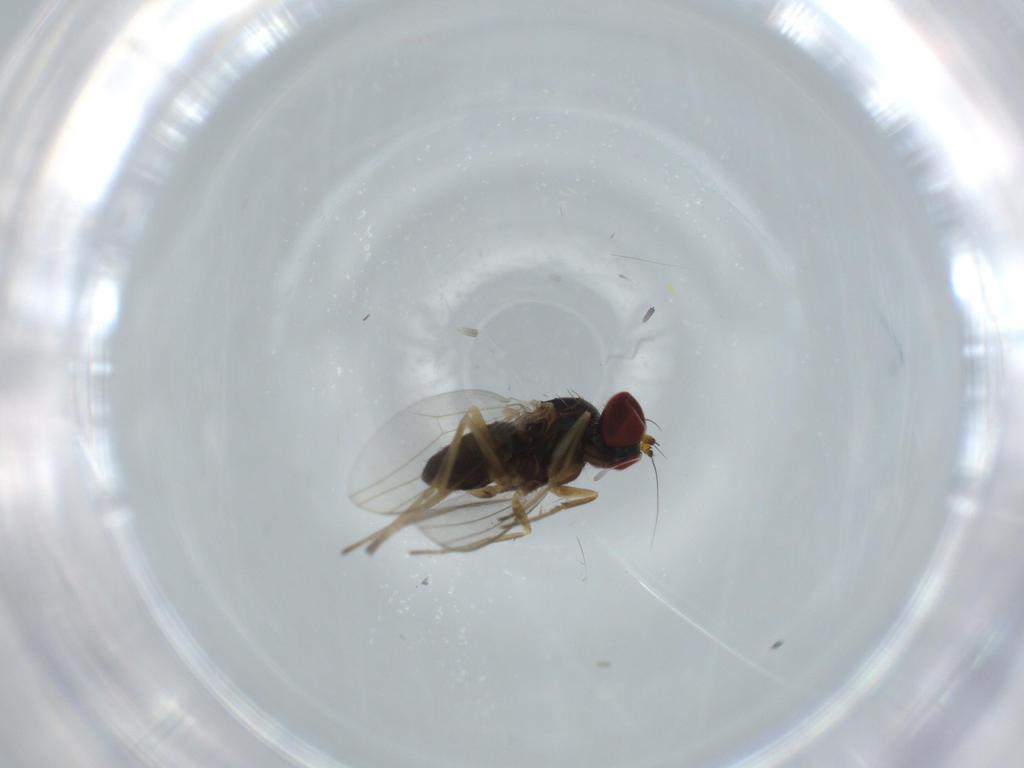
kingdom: Animalia
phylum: Arthropoda
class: Insecta
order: Diptera
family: Dolichopodidae
